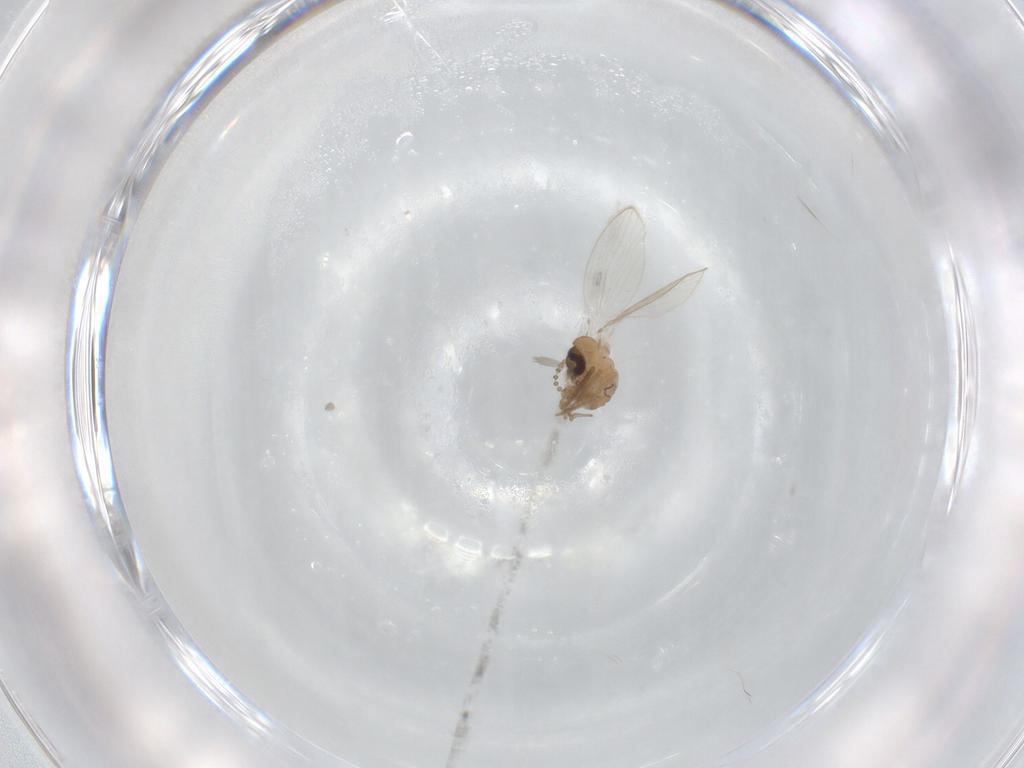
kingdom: Animalia
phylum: Arthropoda
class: Insecta
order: Diptera
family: Psychodidae
